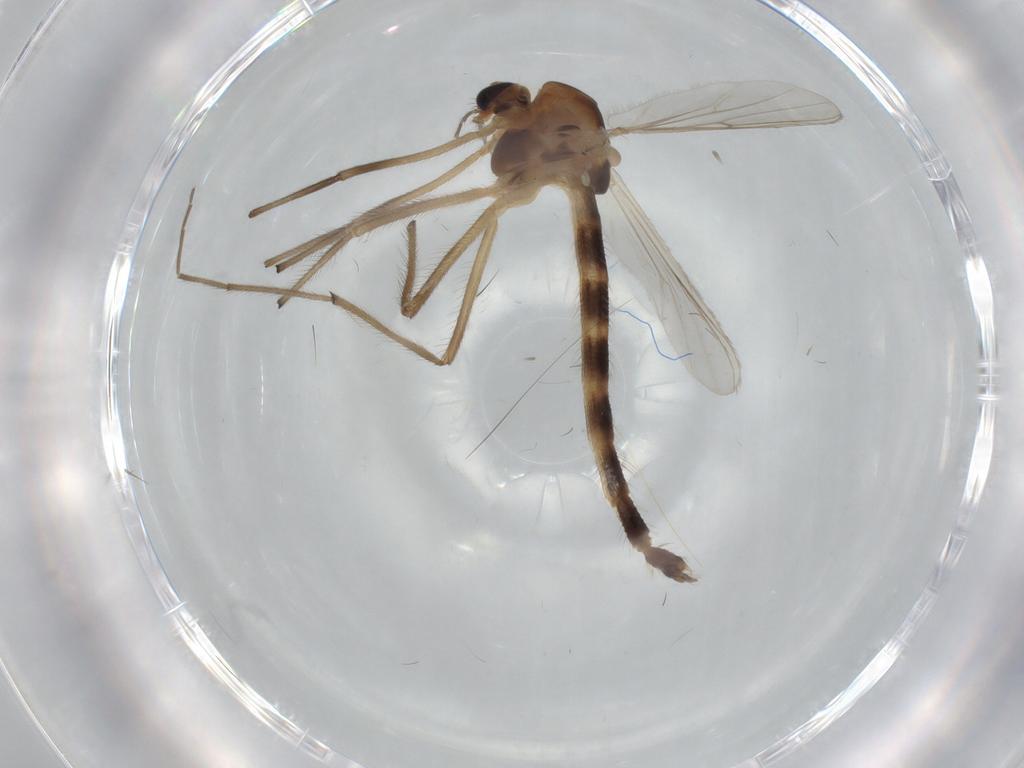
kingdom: Animalia
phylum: Arthropoda
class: Insecta
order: Diptera
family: Chironomidae
